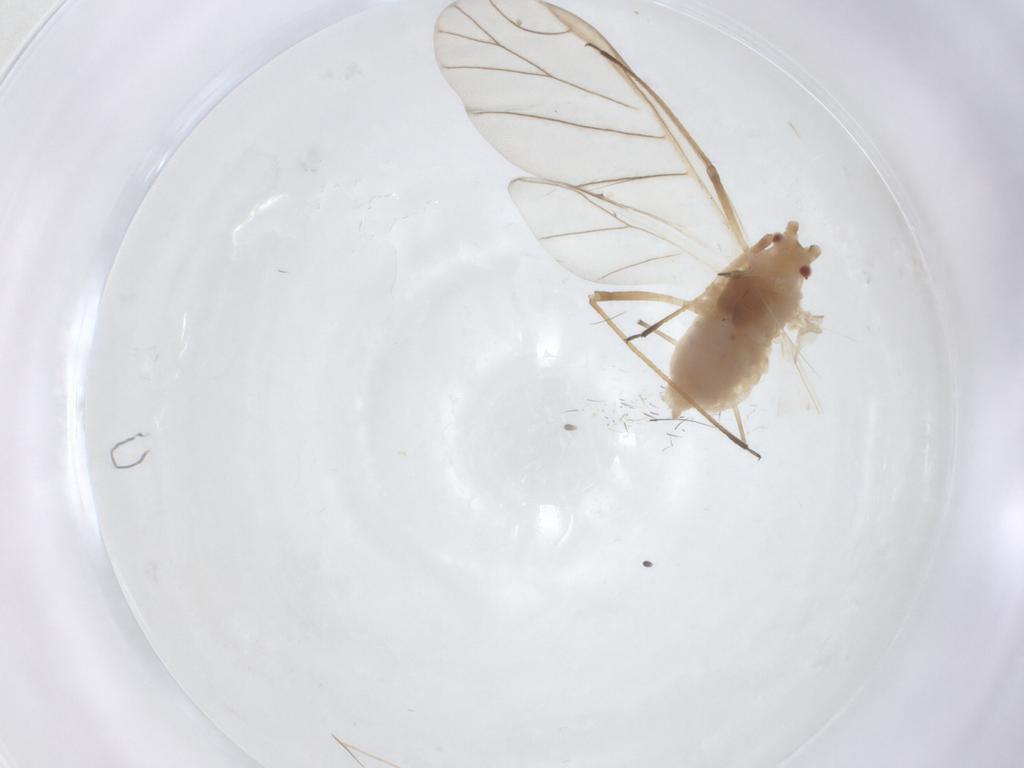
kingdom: Animalia
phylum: Arthropoda
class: Insecta
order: Hemiptera
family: Aphididae
